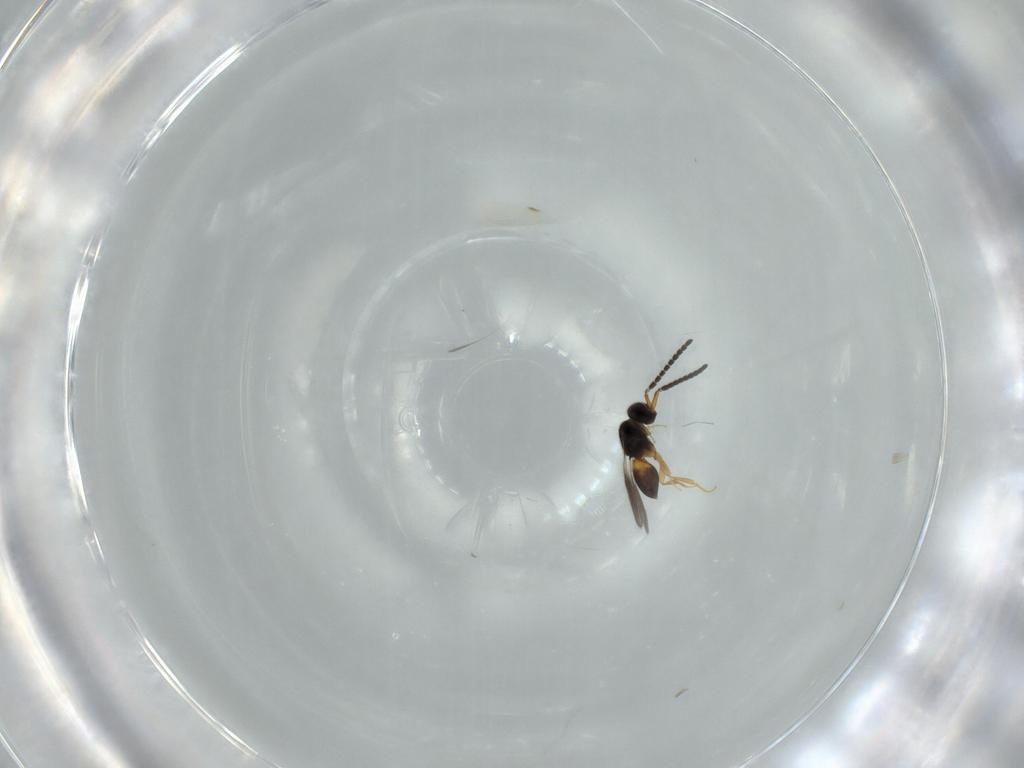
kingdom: Animalia
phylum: Arthropoda
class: Insecta
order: Hymenoptera
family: Scelionidae
